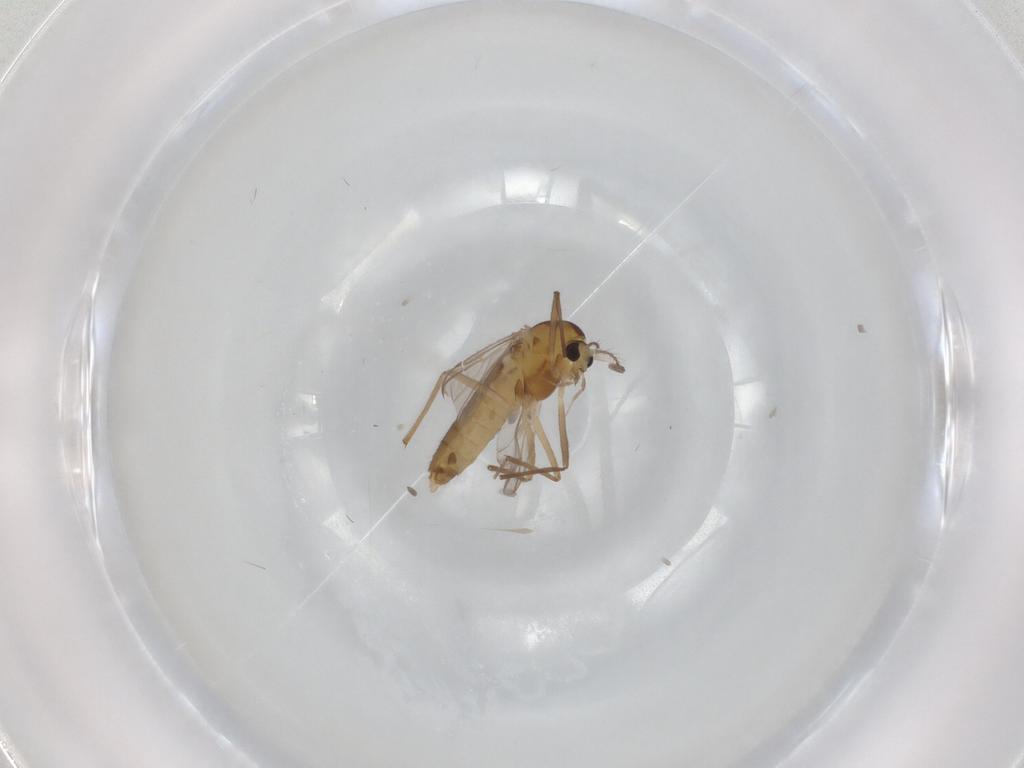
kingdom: Animalia
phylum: Arthropoda
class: Insecta
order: Diptera
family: Chironomidae
